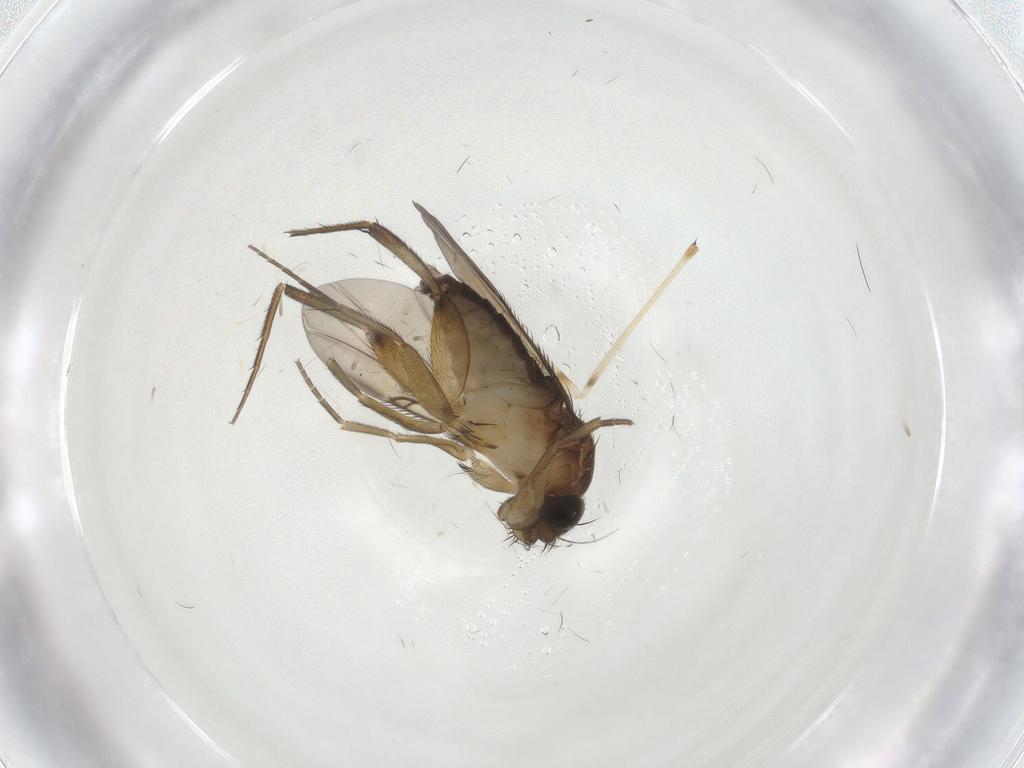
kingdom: Animalia
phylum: Arthropoda
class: Insecta
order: Diptera
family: Phoridae
